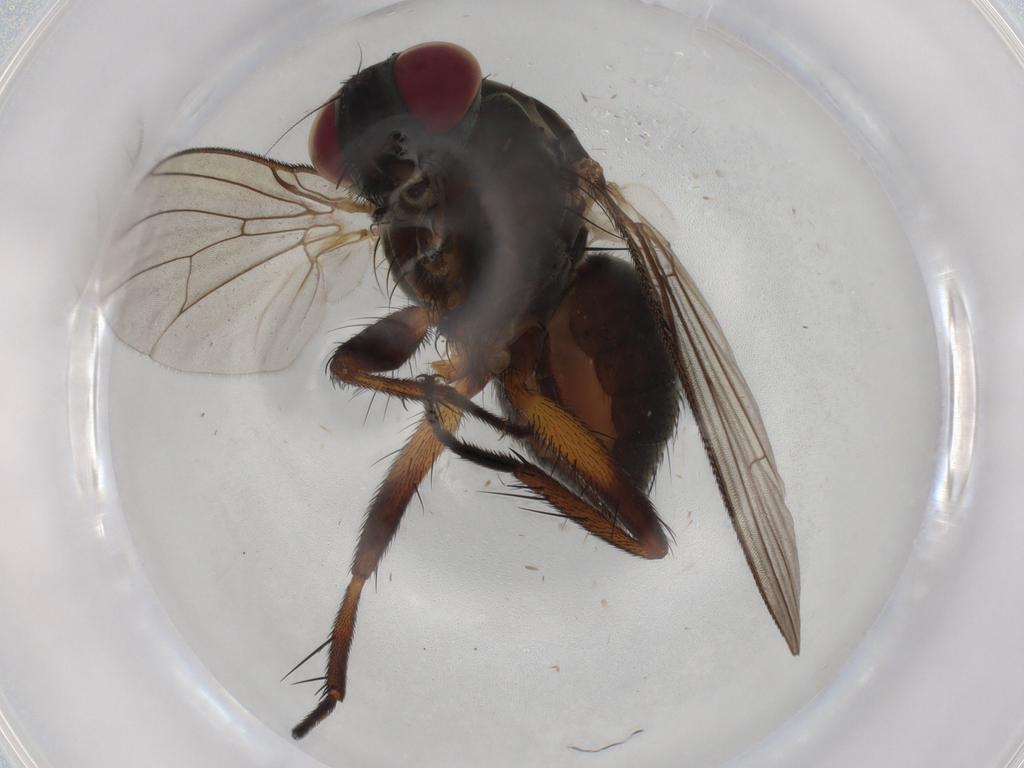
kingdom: Animalia
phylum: Arthropoda
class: Insecta
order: Diptera
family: Muscidae
